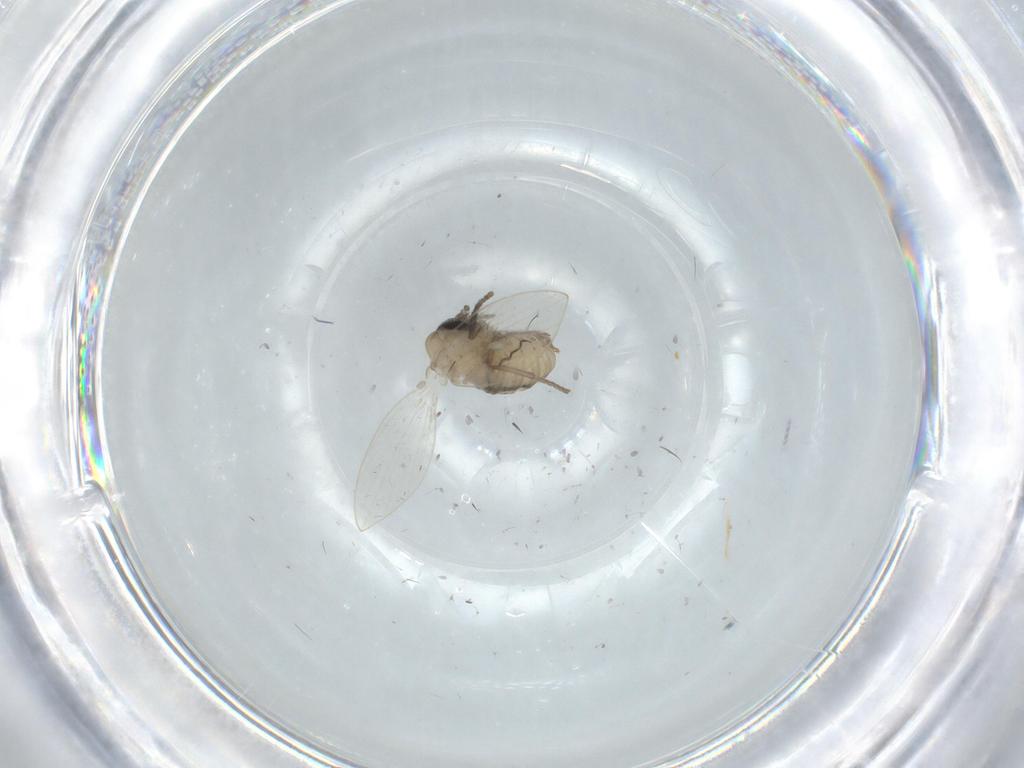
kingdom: Animalia
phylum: Arthropoda
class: Insecta
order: Diptera
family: Psychodidae
